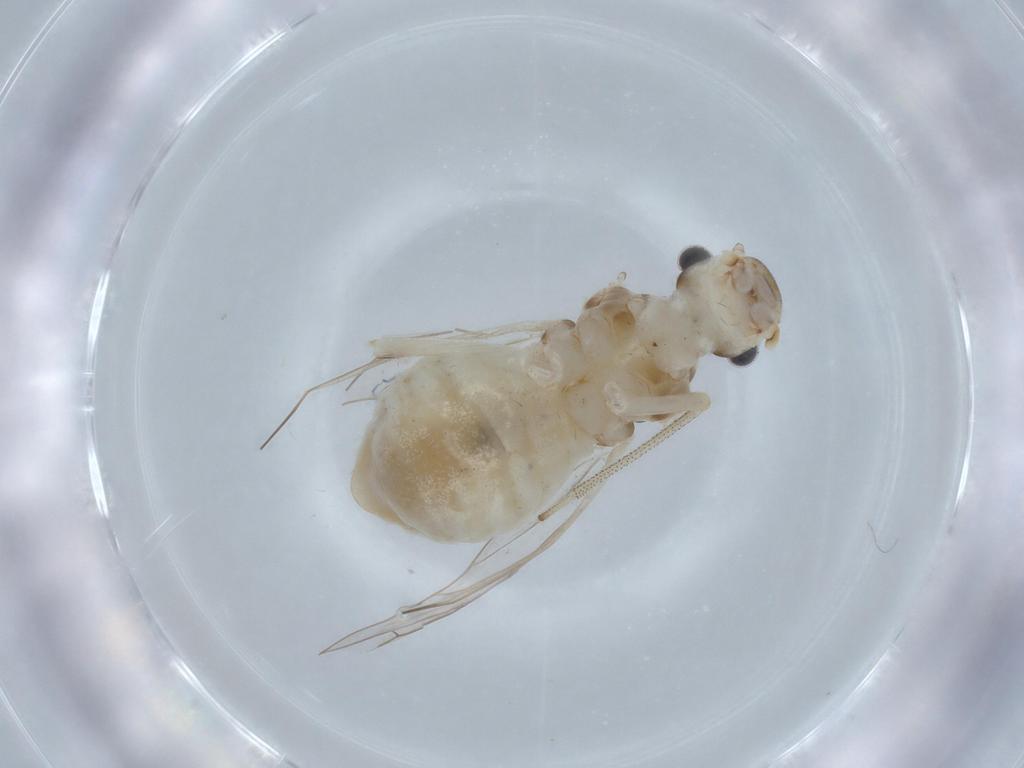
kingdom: Animalia
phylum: Arthropoda
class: Insecta
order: Psocodea
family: Stenopsocidae
